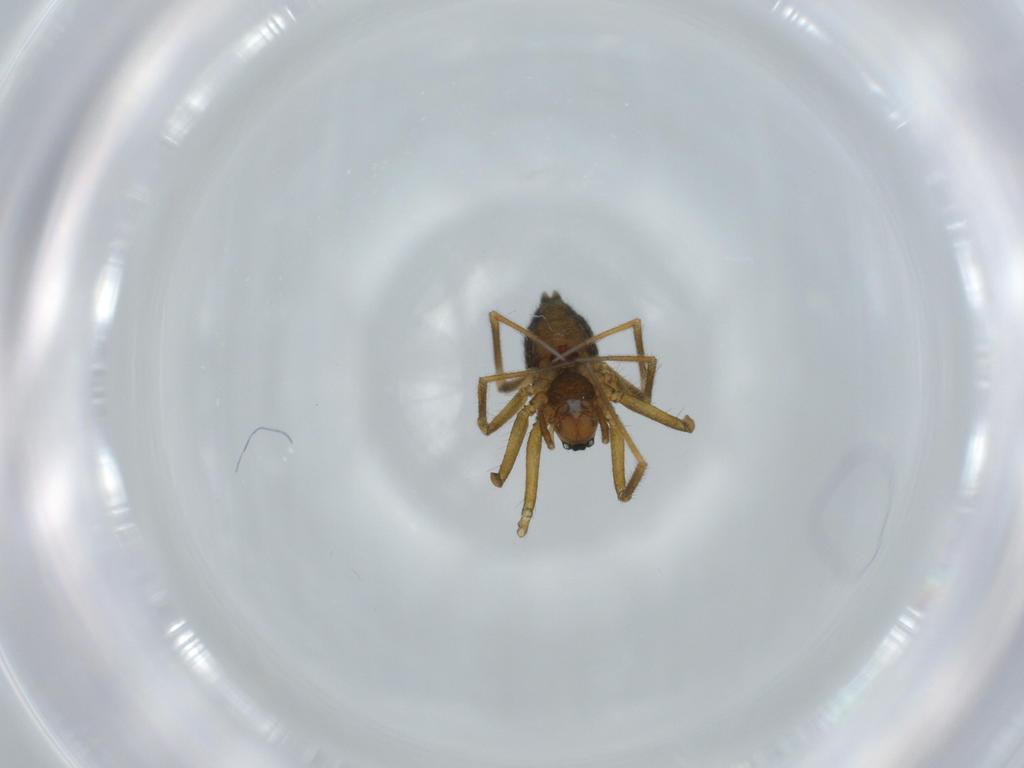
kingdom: Animalia
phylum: Arthropoda
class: Arachnida
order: Araneae
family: Linyphiidae
